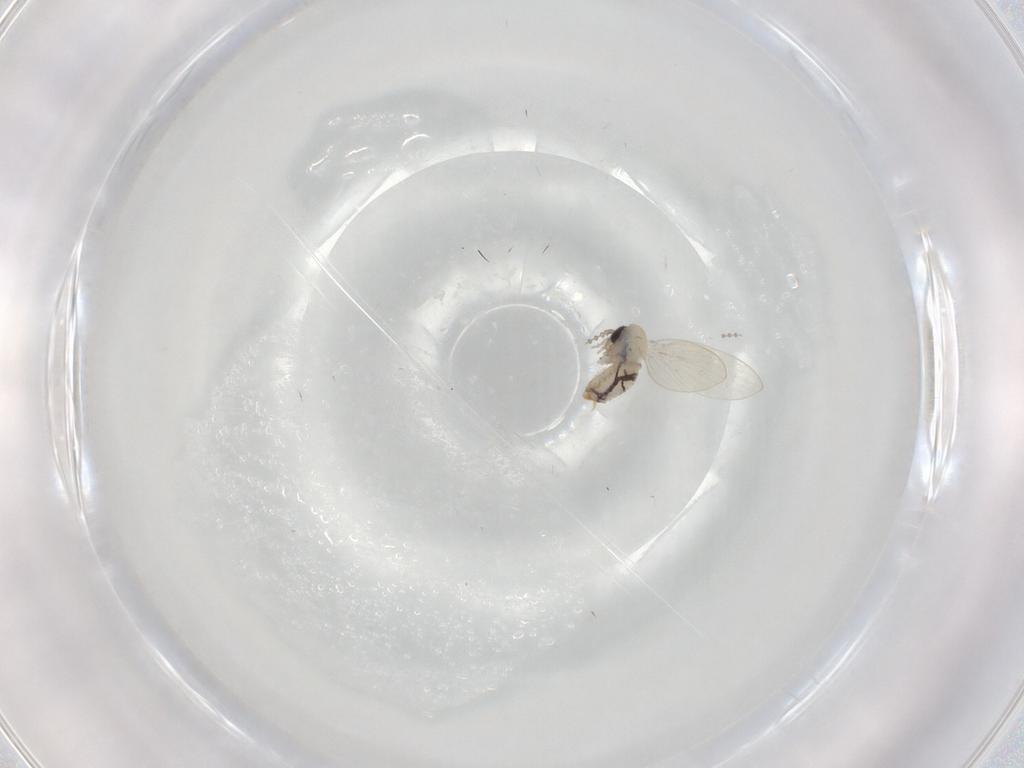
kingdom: Animalia
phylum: Arthropoda
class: Insecta
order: Diptera
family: Psychodidae
